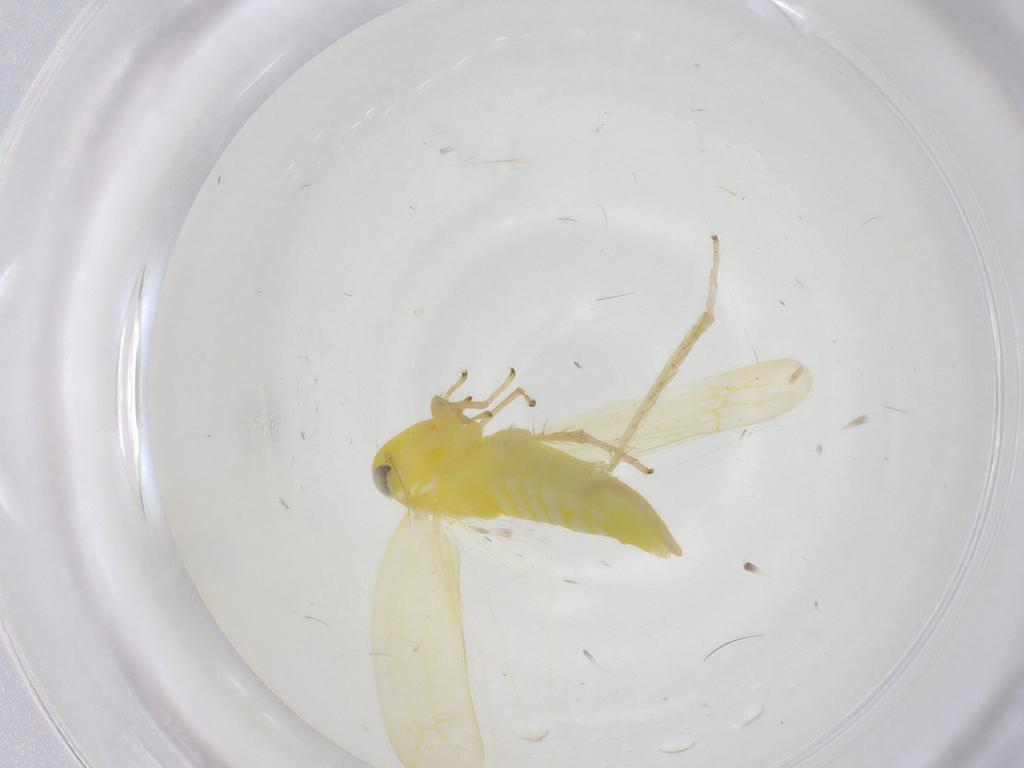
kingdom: Animalia
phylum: Arthropoda
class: Insecta
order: Hemiptera
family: Cicadellidae
